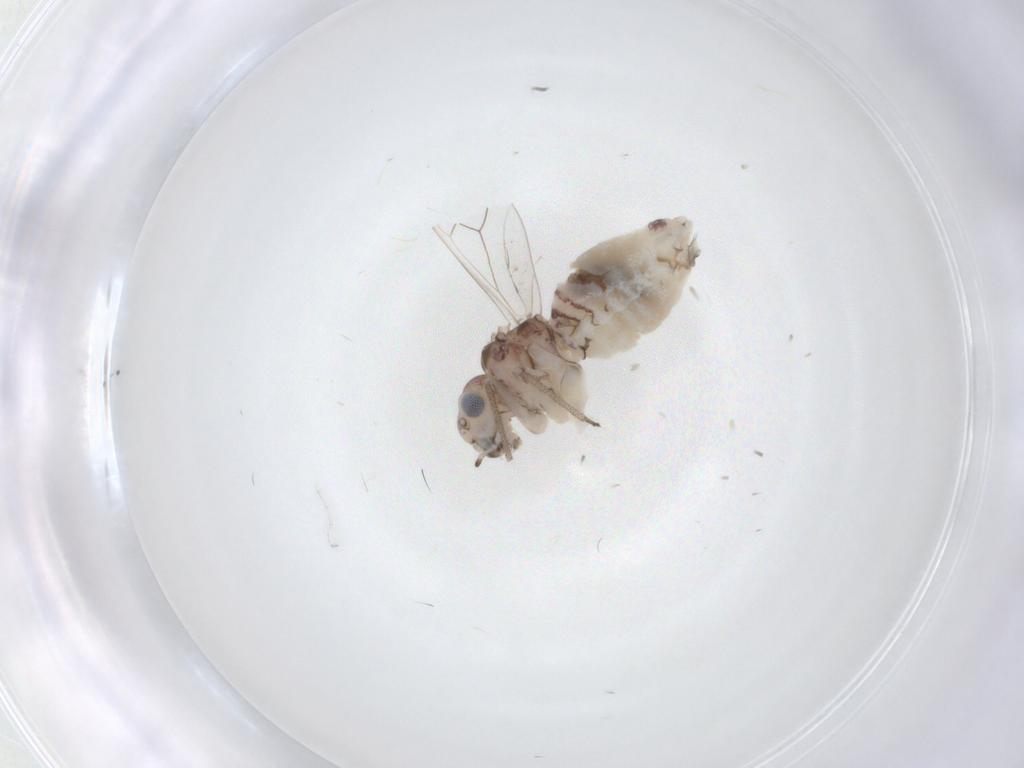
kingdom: Animalia
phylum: Arthropoda
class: Insecta
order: Psocodea
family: Psocidae
